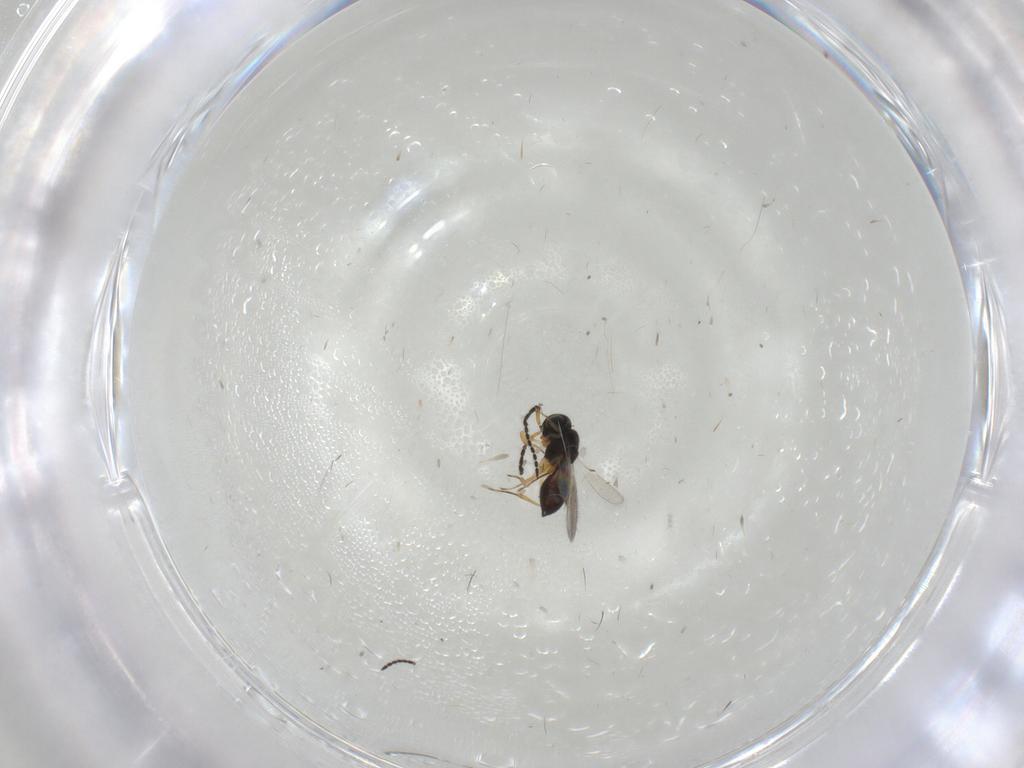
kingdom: Animalia
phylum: Arthropoda
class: Insecta
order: Hymenoptera
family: Scelionidae
